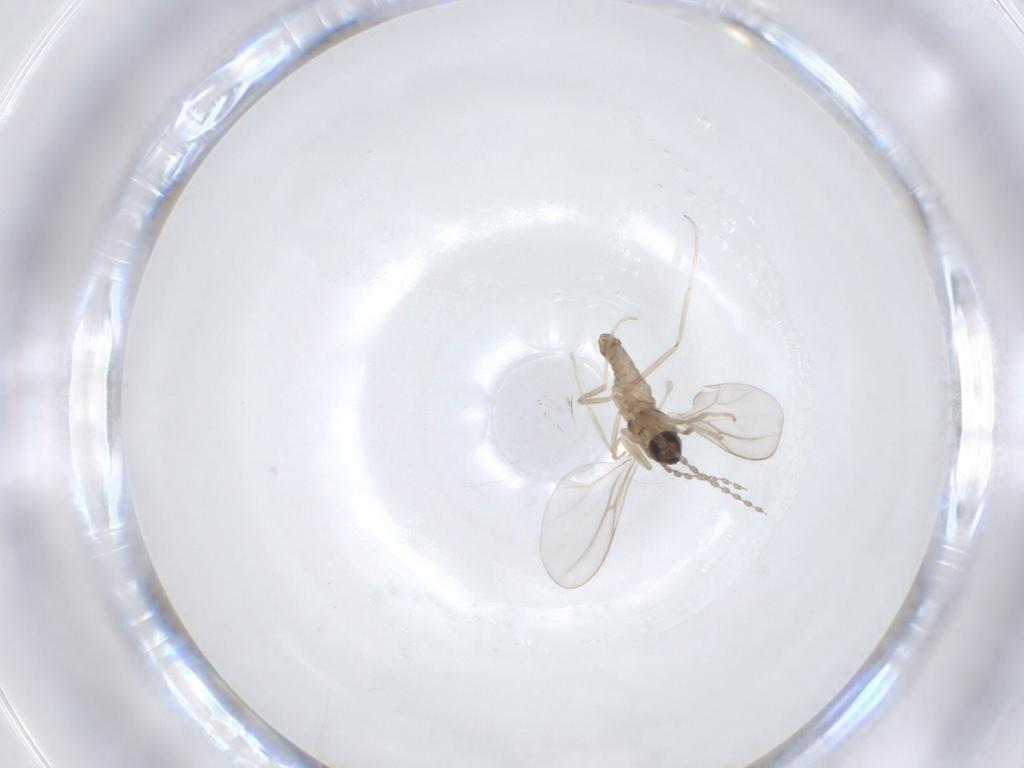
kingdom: Animalia
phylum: Arthropoda
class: Insecta
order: Diptera
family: Cecidomyiidae
